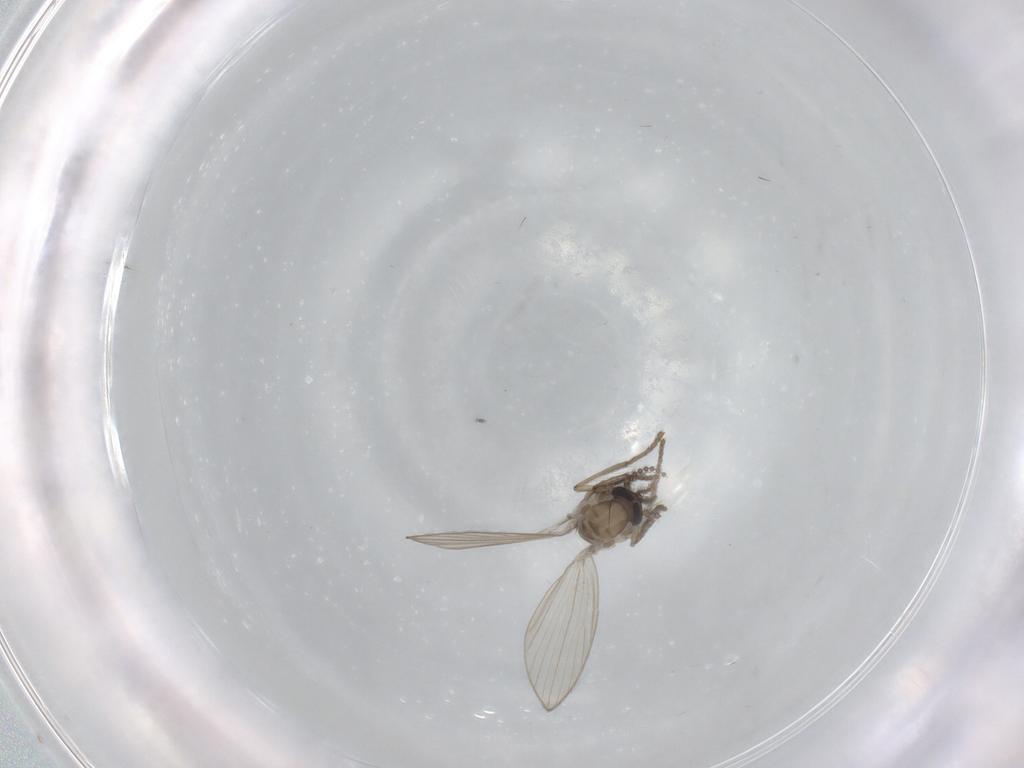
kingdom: Animalia
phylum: Arthropoda
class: Insecta
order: Diptera
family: Psychodidae
